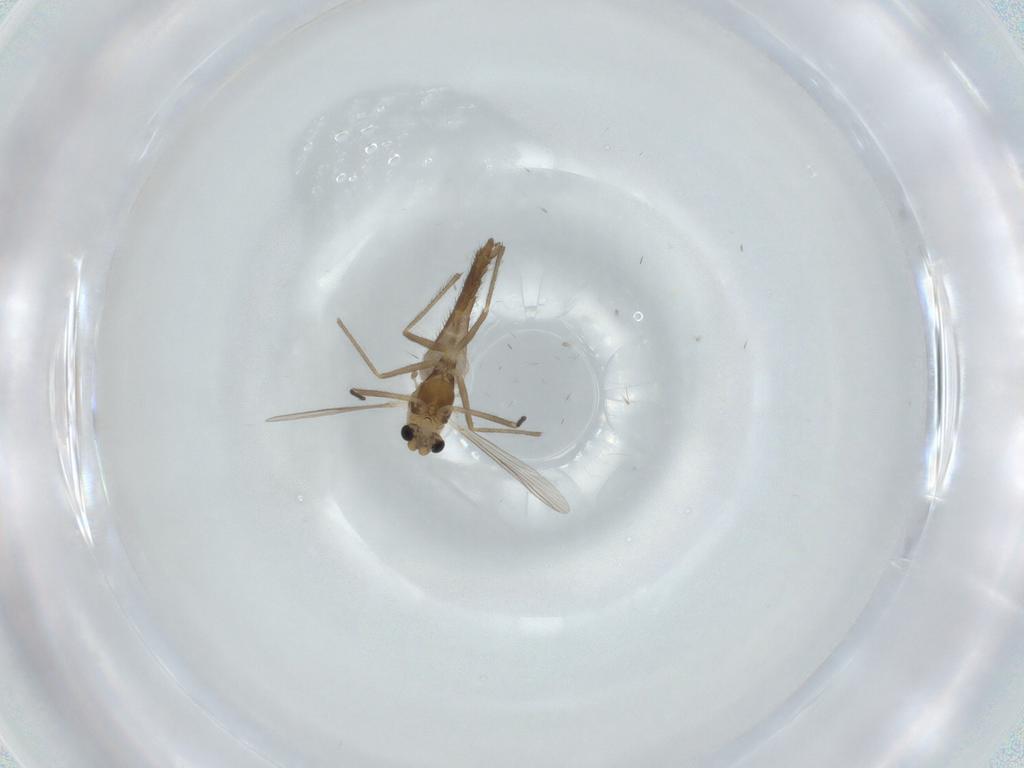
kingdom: Animalia
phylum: Arthropoda
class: Insecta
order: Diptera
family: Chironomidae
